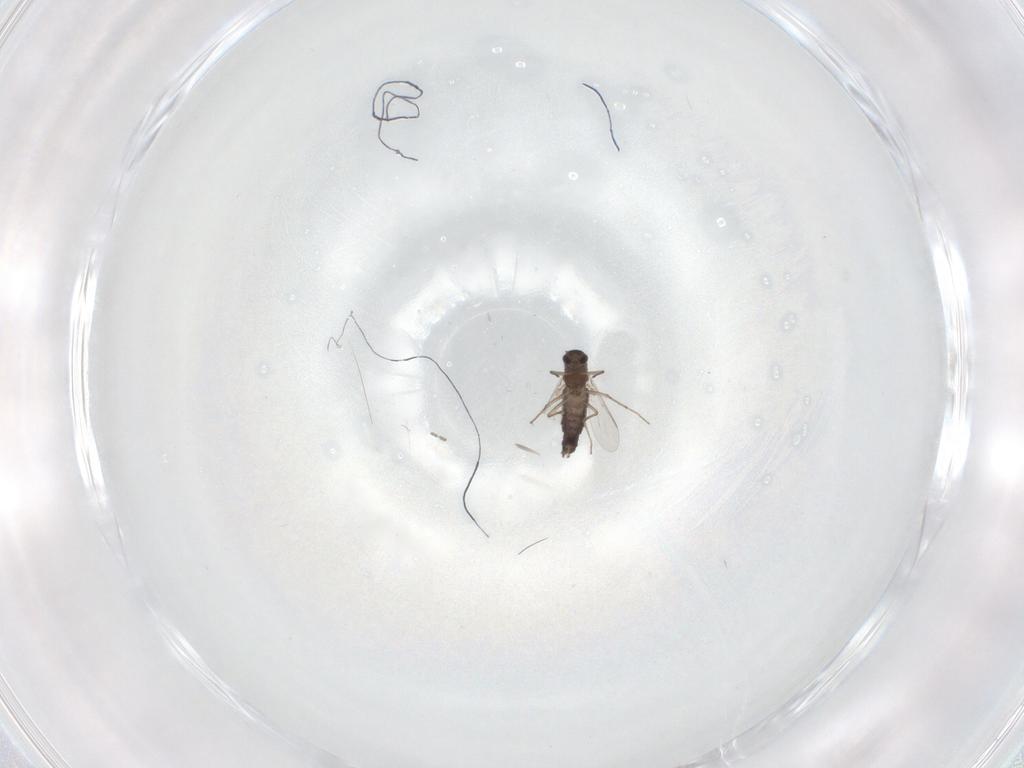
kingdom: Animalia
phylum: Arthropoda
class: Insecta
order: Diptera
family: Chironomidae
